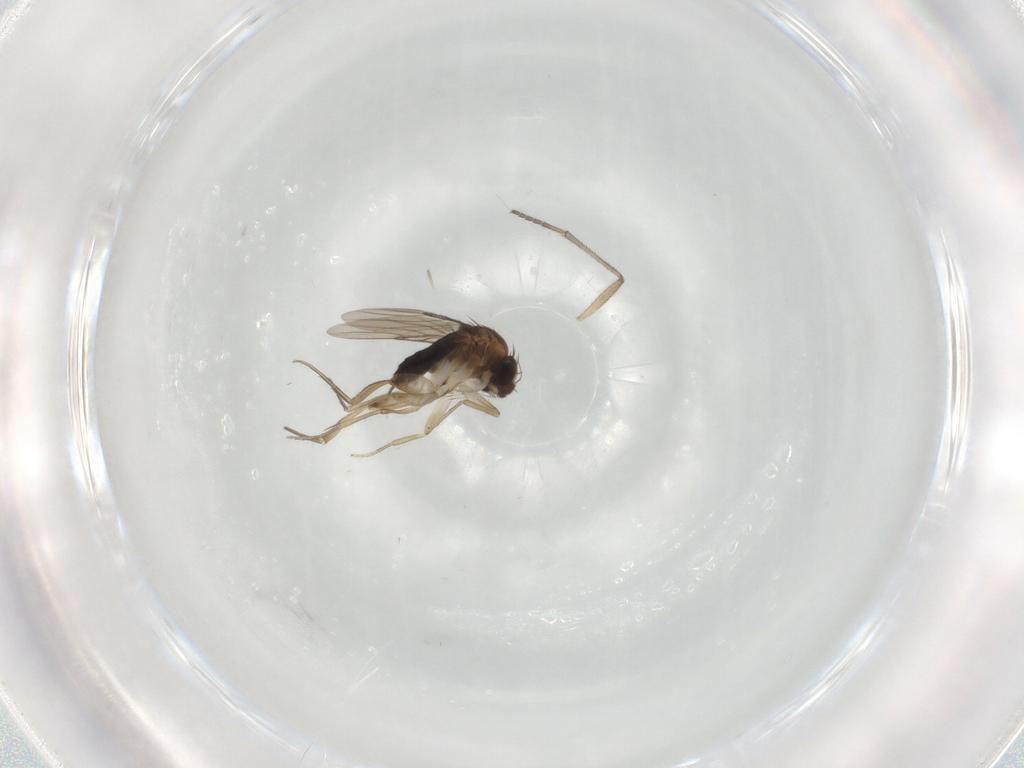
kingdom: Animalia
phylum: Arthropoda
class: Insecta
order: Diptera
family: Phoridae
